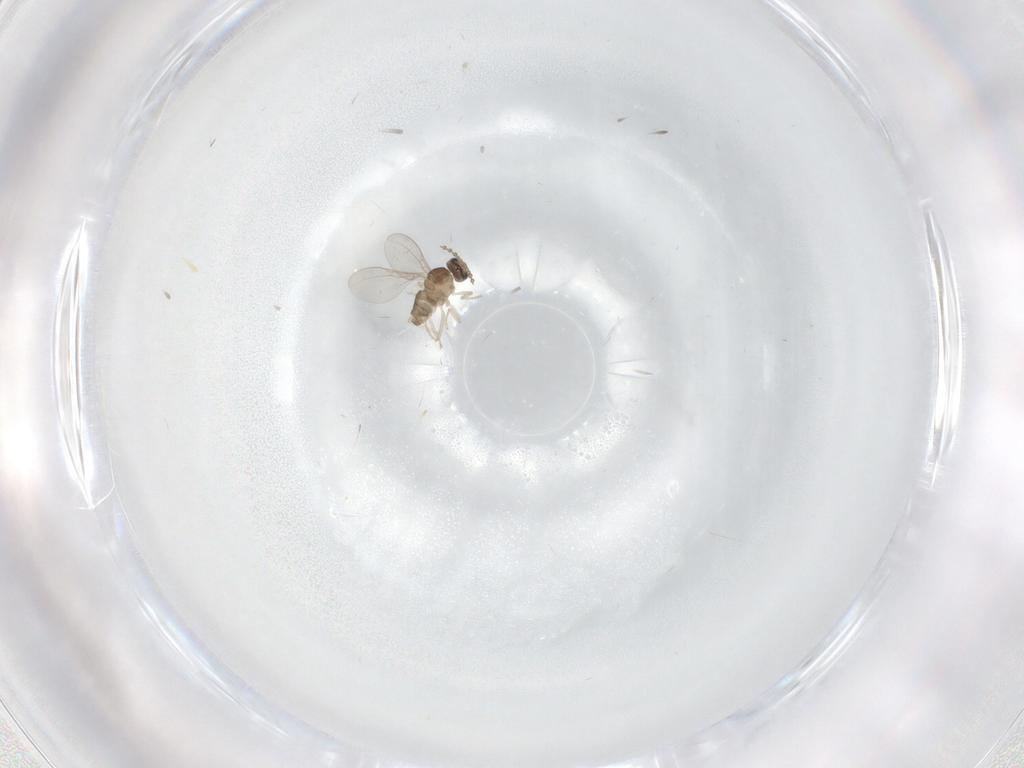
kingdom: Animalia
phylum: Arthropoda
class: Insecta
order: Diptera
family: Cecidomyiidae
